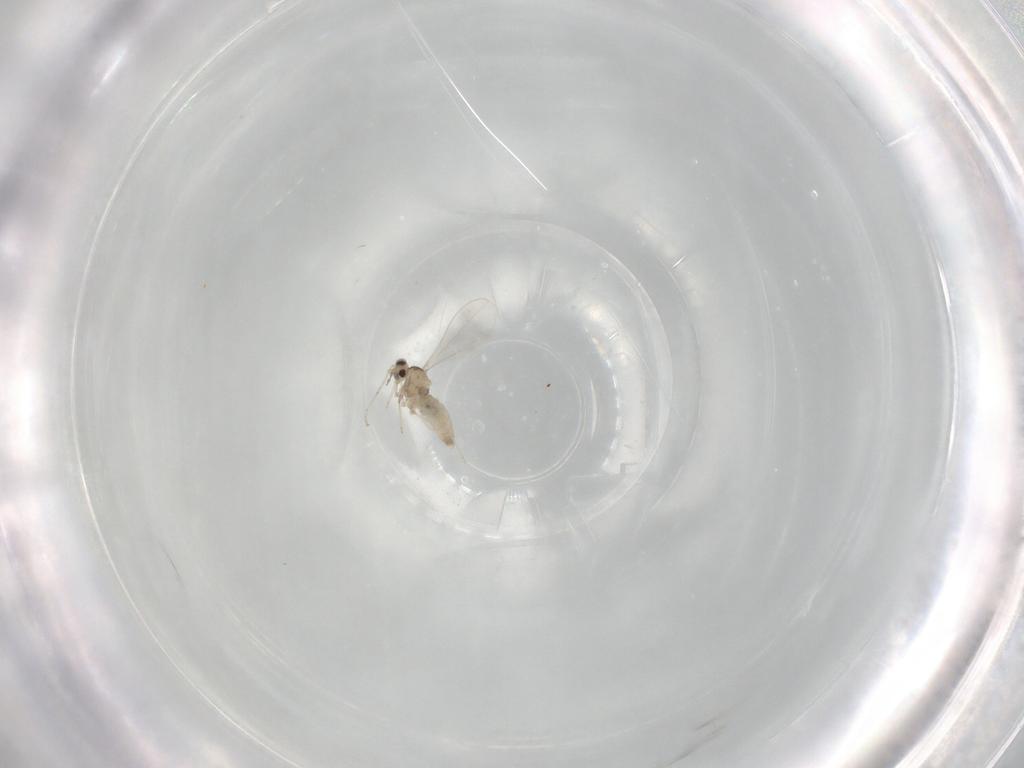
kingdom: Animalia
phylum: Arthropoda
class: Insecta
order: Diptera
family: Cecidomyiidae
